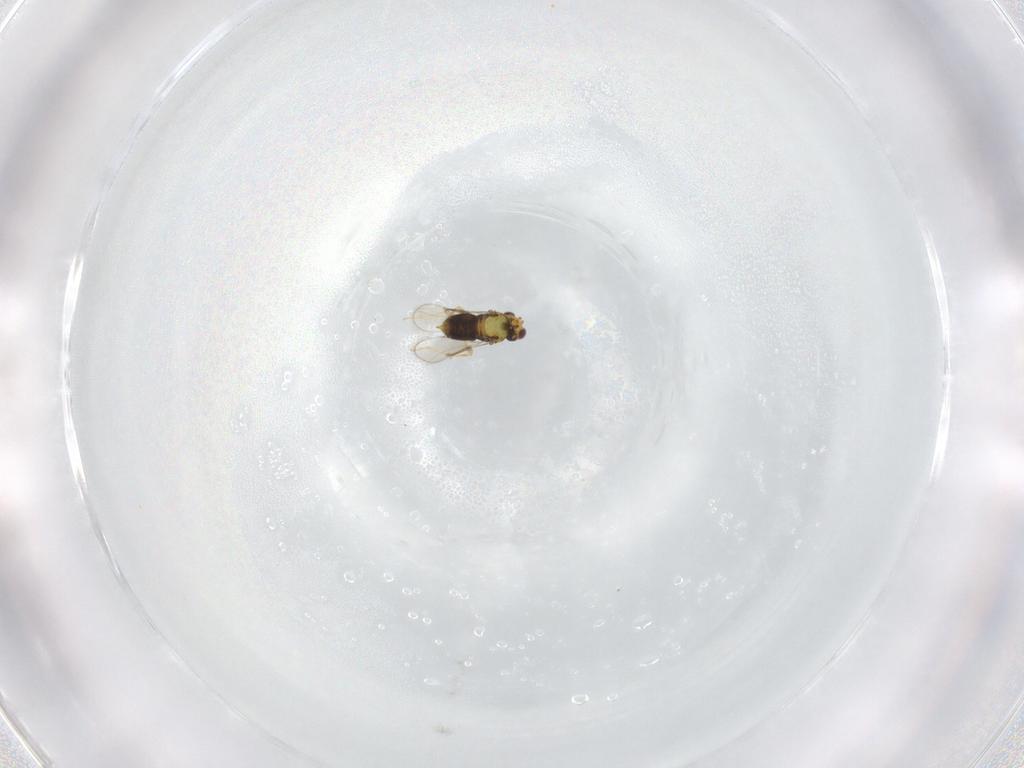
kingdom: Animalia
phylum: Arthropoda
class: Insecta
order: Hymenoptera
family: Aphelinidae
